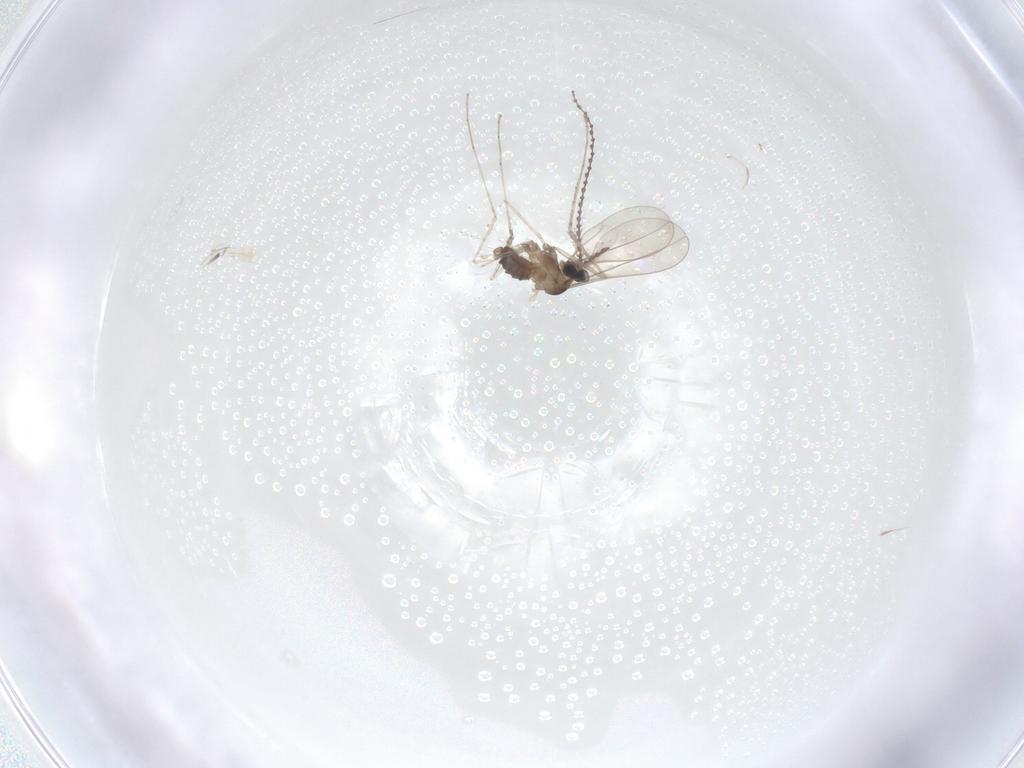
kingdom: Animalia
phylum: Arthropoda
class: Insecta
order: Diptera
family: Cecidomyiidae
